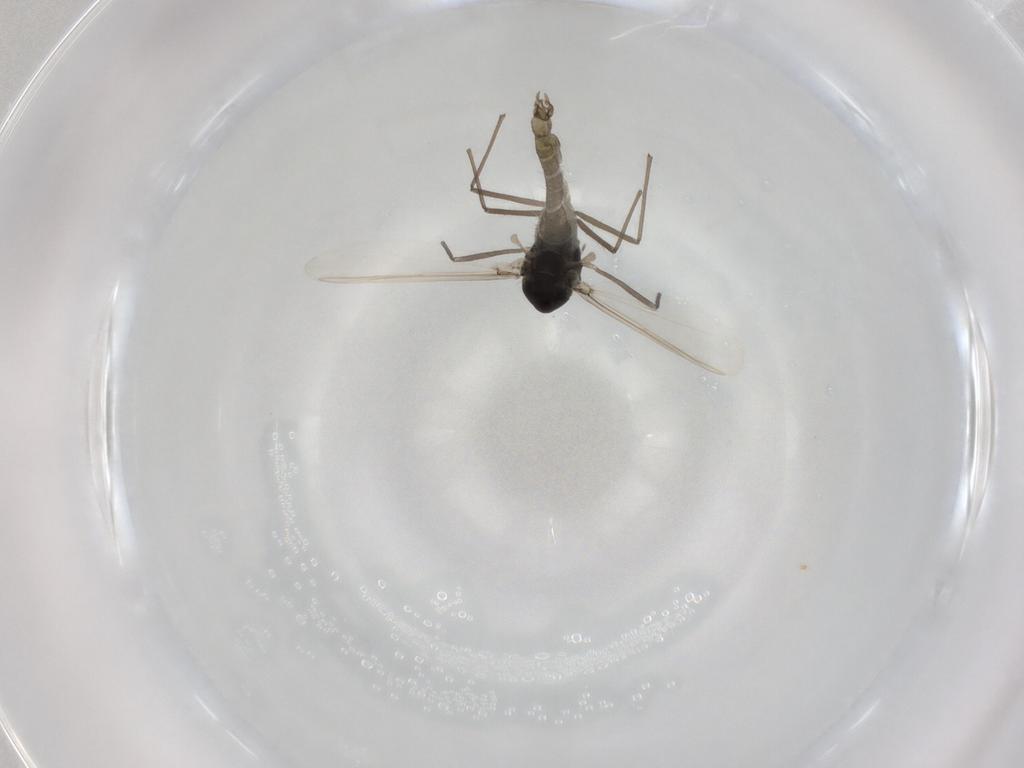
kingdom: Animalia
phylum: Arthropoda
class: Insecta
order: Diptera
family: Chironomidae
